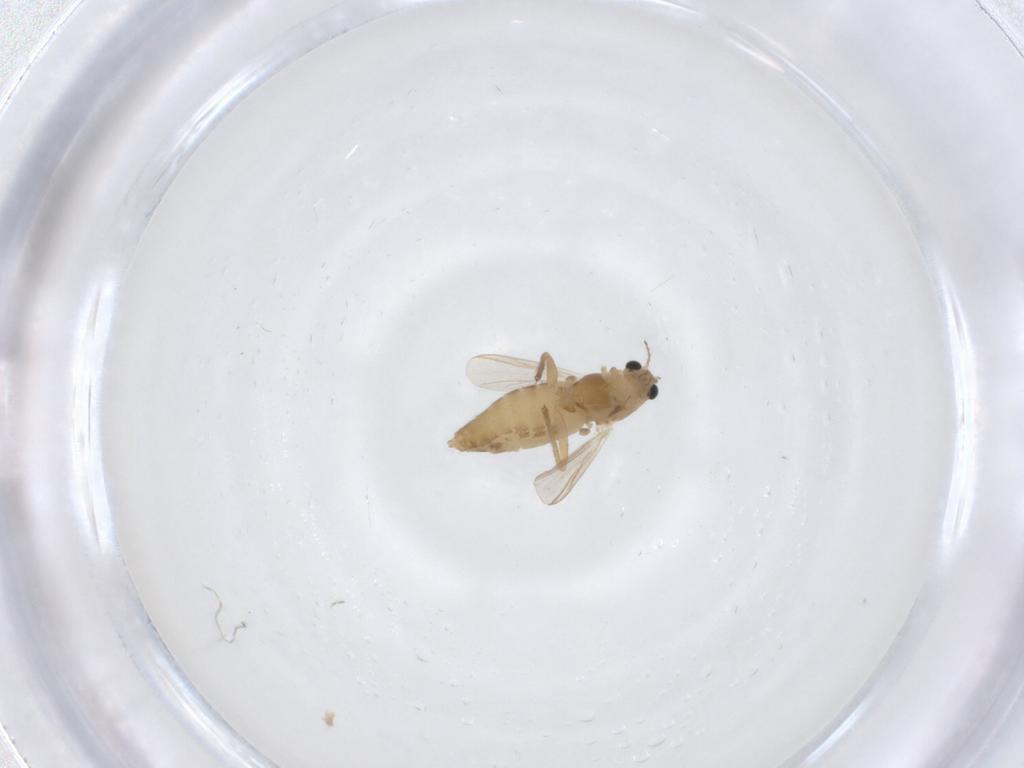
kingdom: Animalia
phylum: Arthropoda
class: Insecta
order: Diptera
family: Chironomidae
